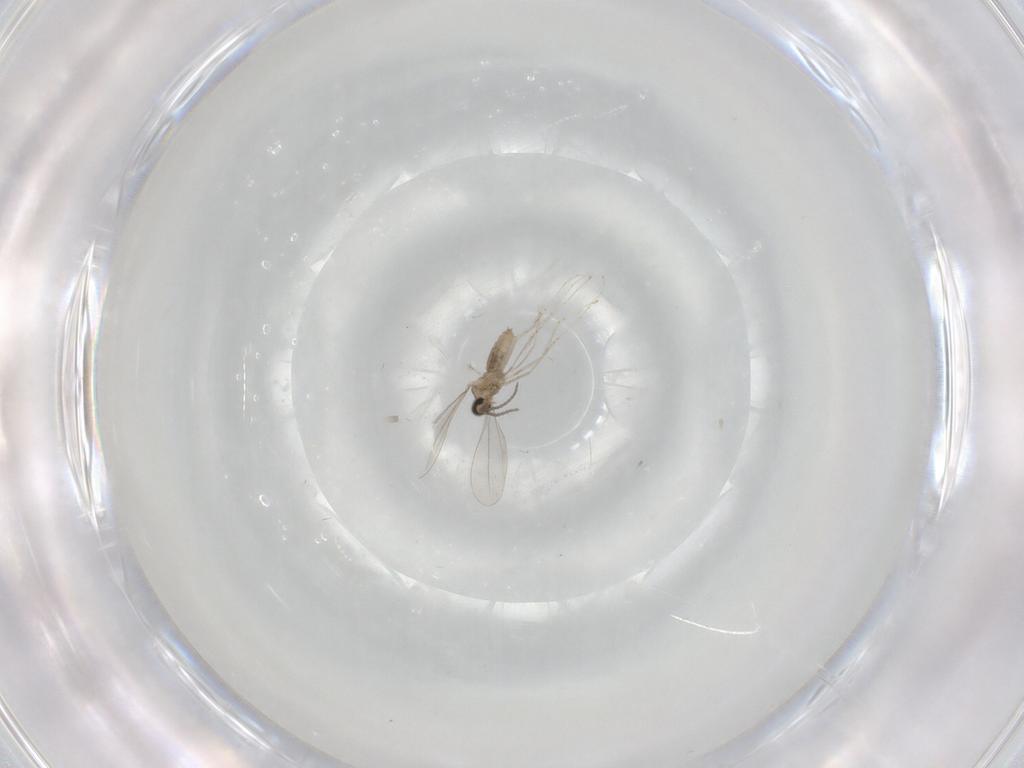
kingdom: Animalia
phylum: Arthropoda
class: Insecta
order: Diptera
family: Cecidomyiidae
